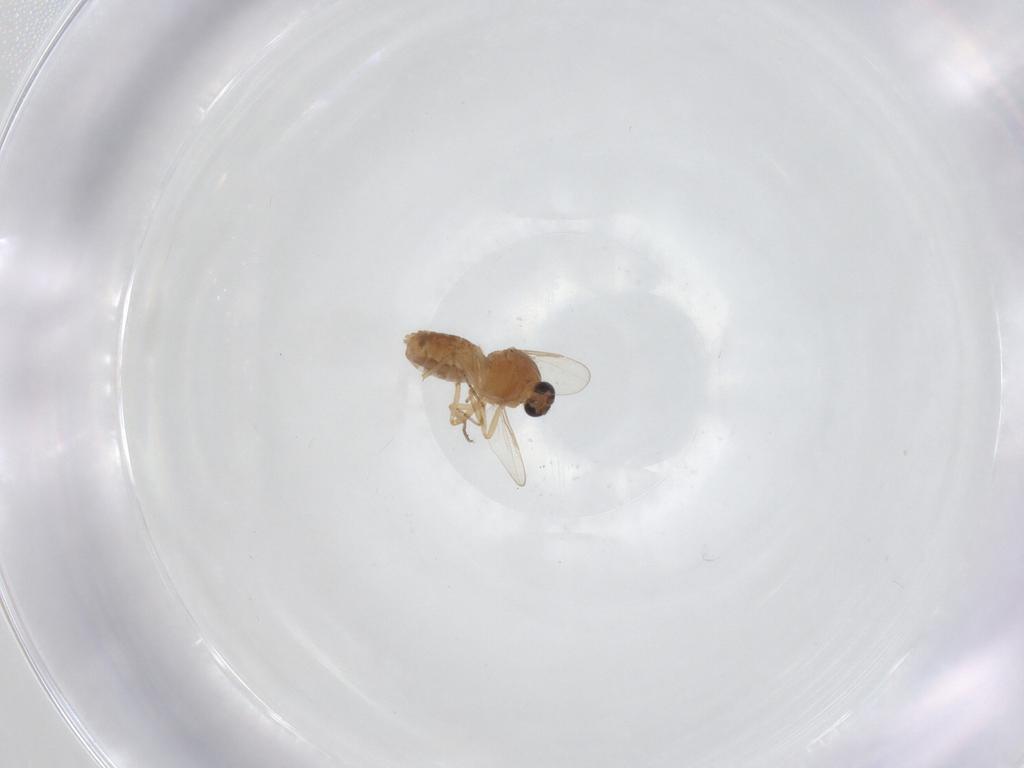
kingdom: Animalia
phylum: Arthropoda
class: Insecta
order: Diptera
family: Ceratopogonidae
